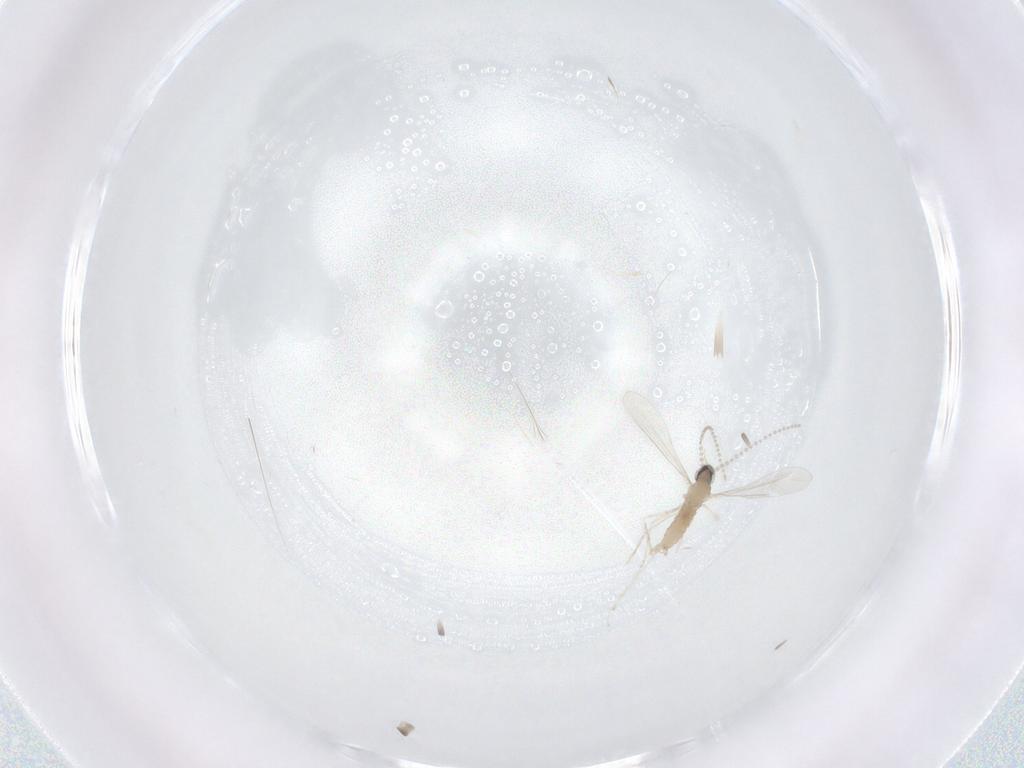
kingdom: Animalia
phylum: Arthropoda
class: Insecta
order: Diptera
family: Cecidomyiidae
